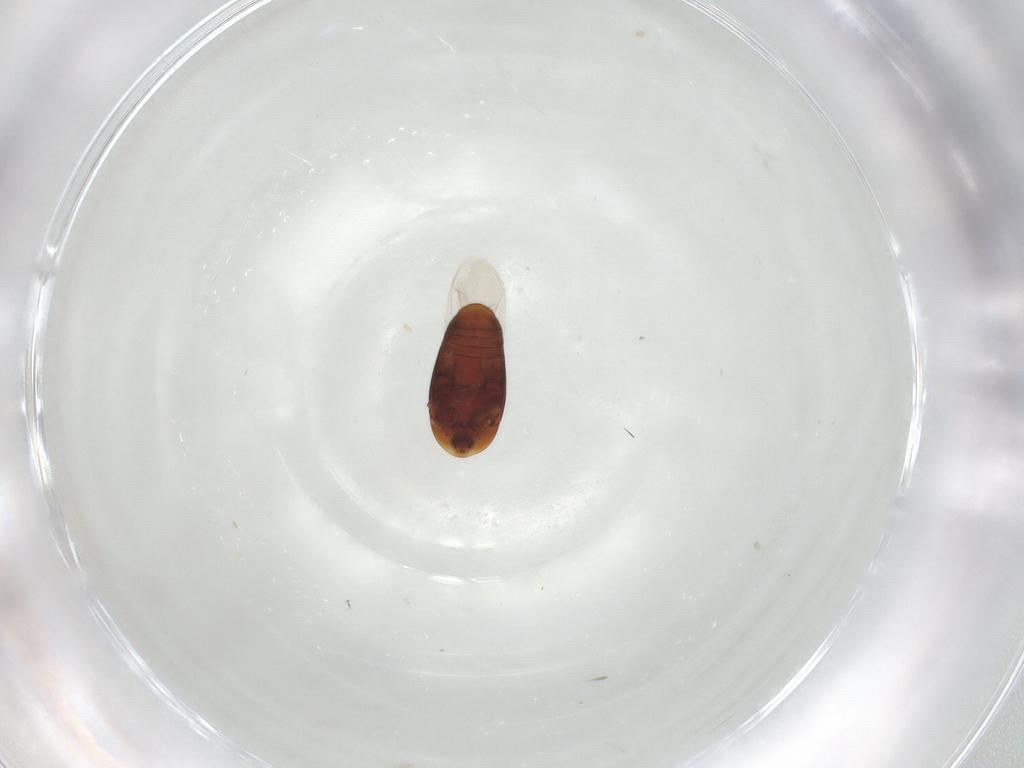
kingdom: Animalia
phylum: Arthropoda
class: Insecta
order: Coleoptera
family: Corylophidae
